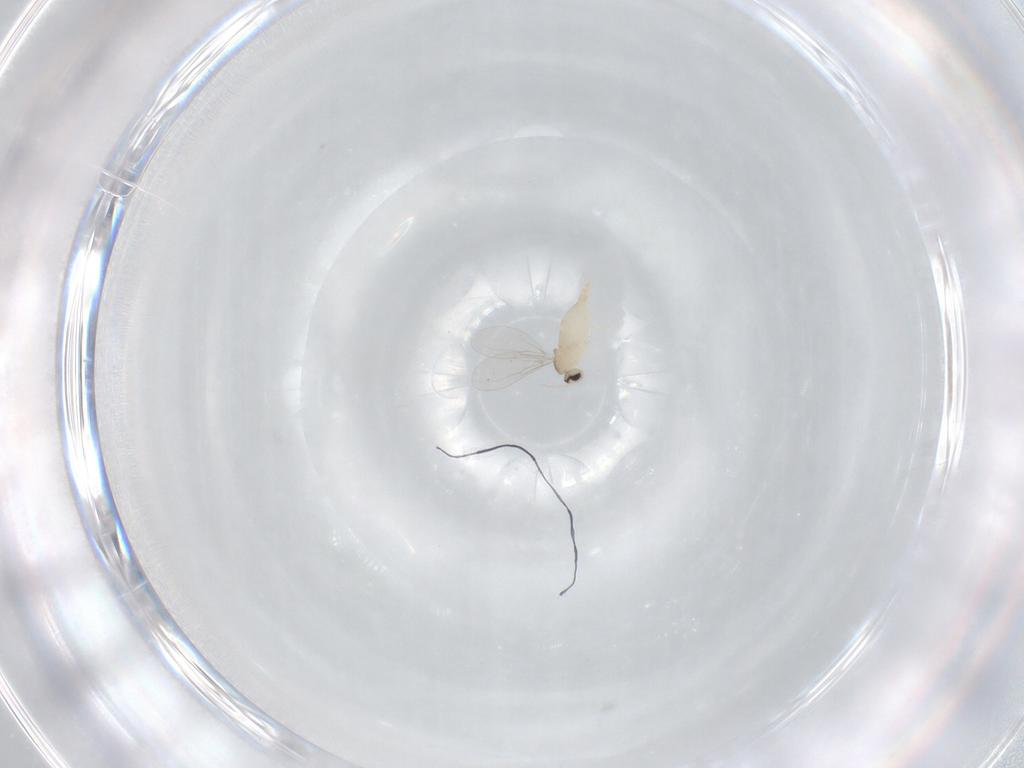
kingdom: Animalia
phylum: Arthropoda
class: Insecta
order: Diptera
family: Cecidomyiidae
